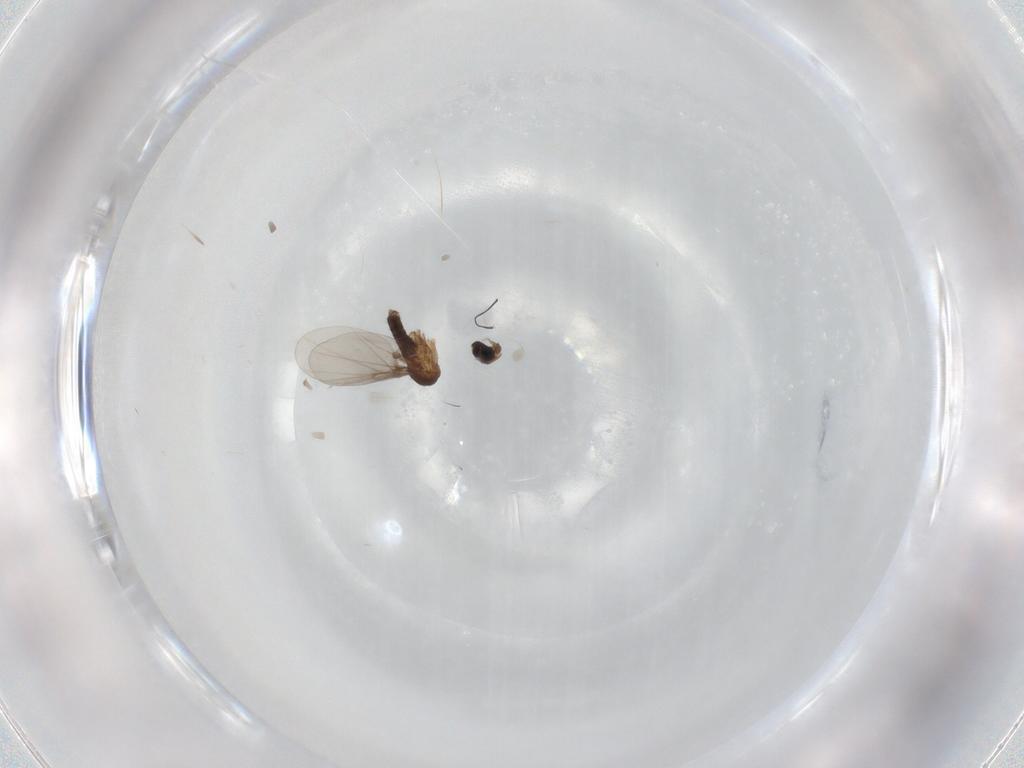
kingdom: Animalia
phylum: Arthropoda
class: Insecta
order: Diptera
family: Phoridae
